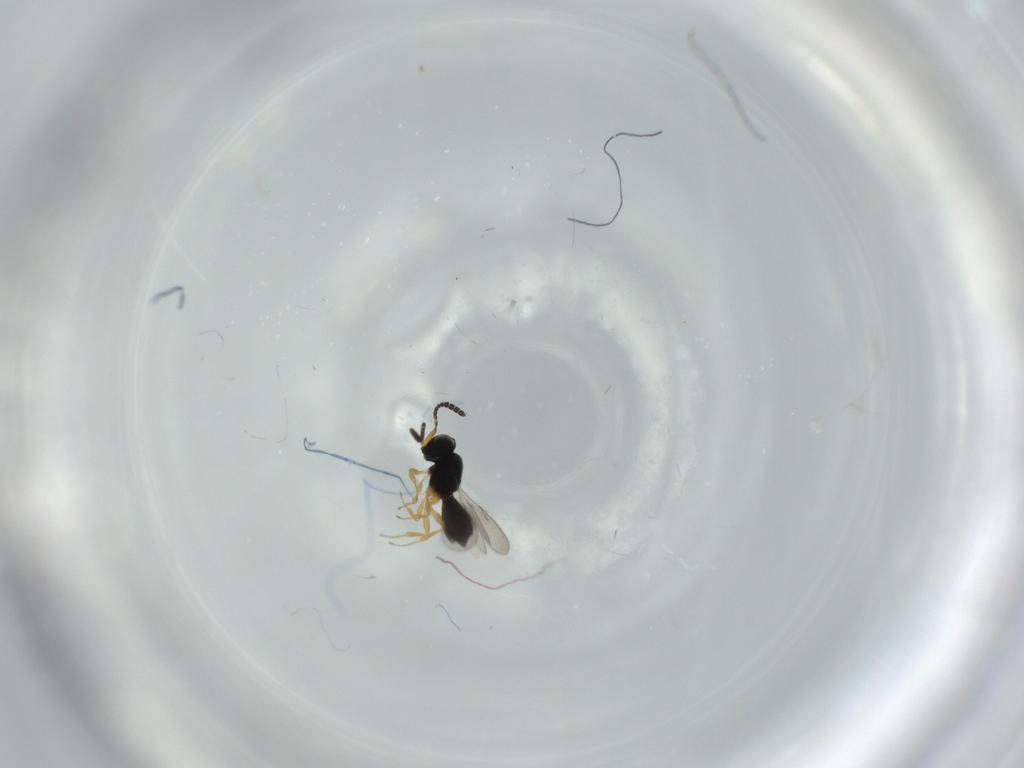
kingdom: Animalia
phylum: Arthropoda
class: Insecta
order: Hymenoptera
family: Scelionidae
